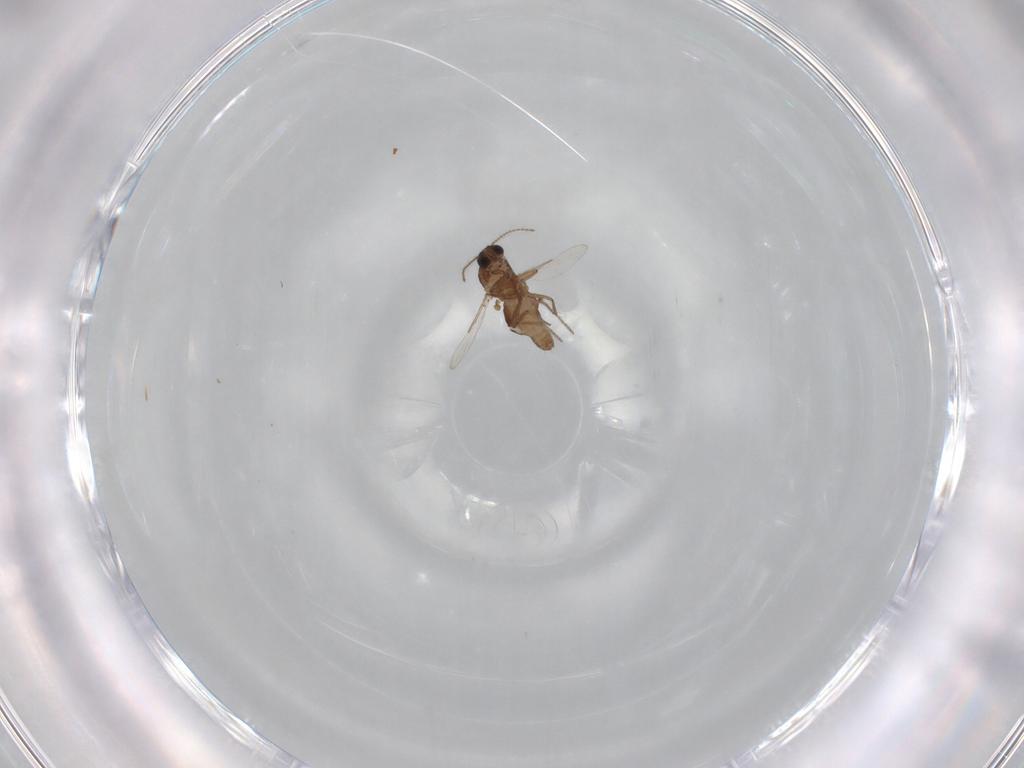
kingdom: Animalia
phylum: Arthropoda
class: Insecta
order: Diptera
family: Ceratopogonidae
